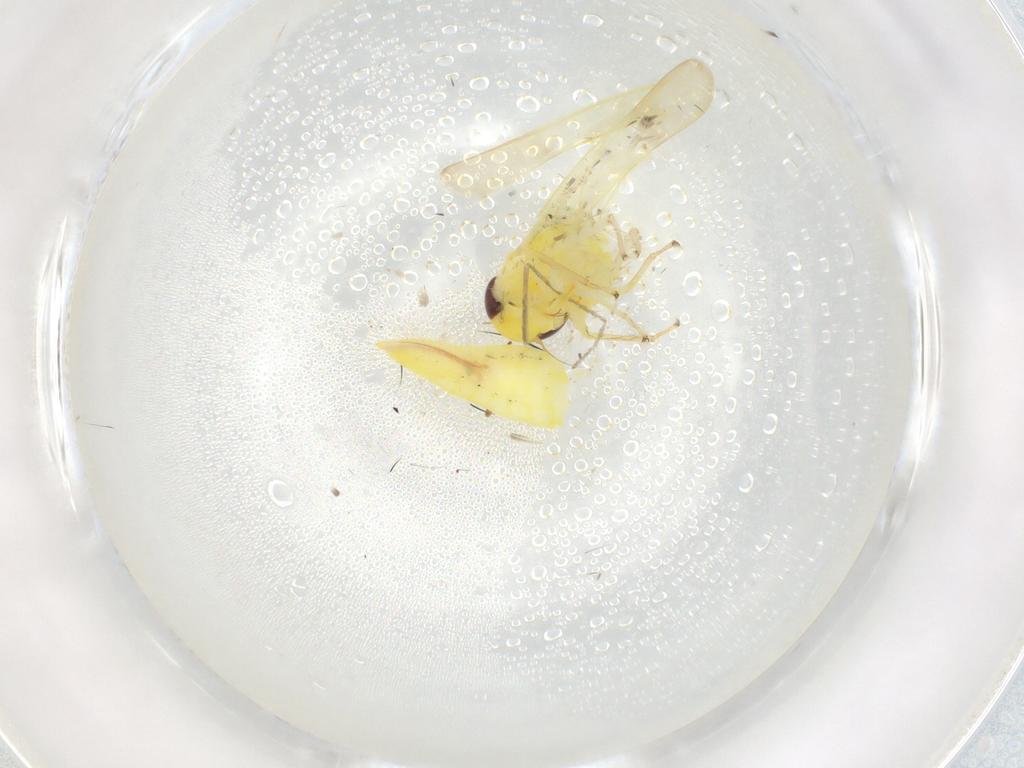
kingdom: Animalia
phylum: Arthropoda
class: Insecta
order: Hemiptera
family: Cicadellidae
